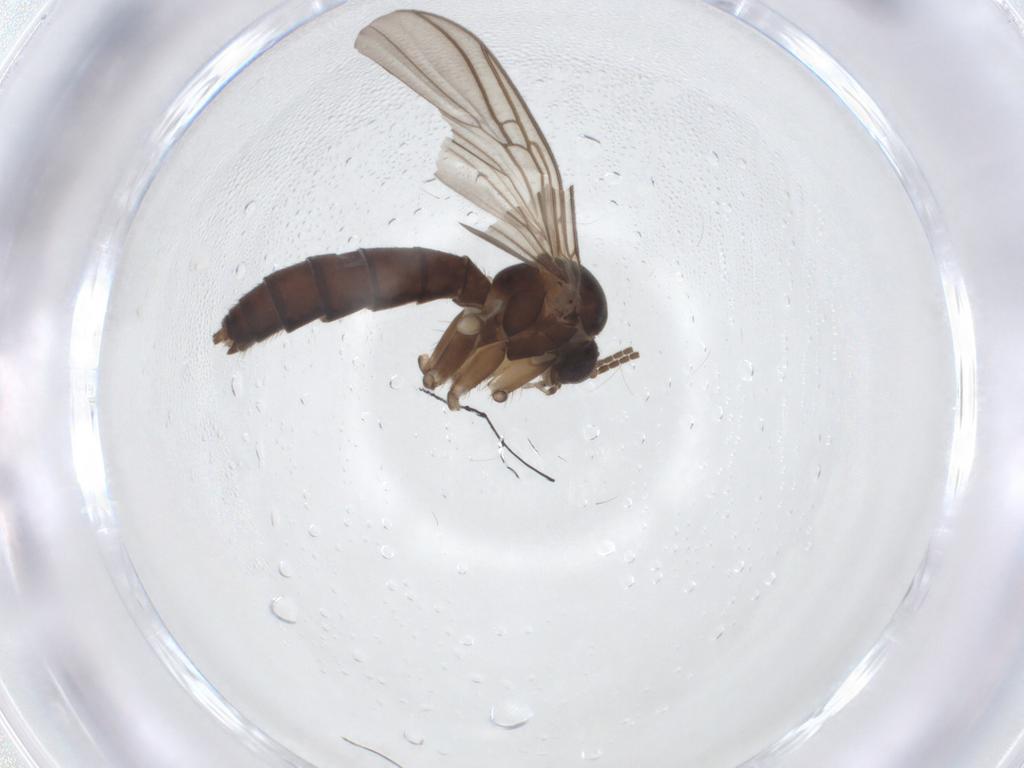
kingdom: Animalia
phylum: Arthropoda
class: Insecta
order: Diptera
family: Mycetophilidae
